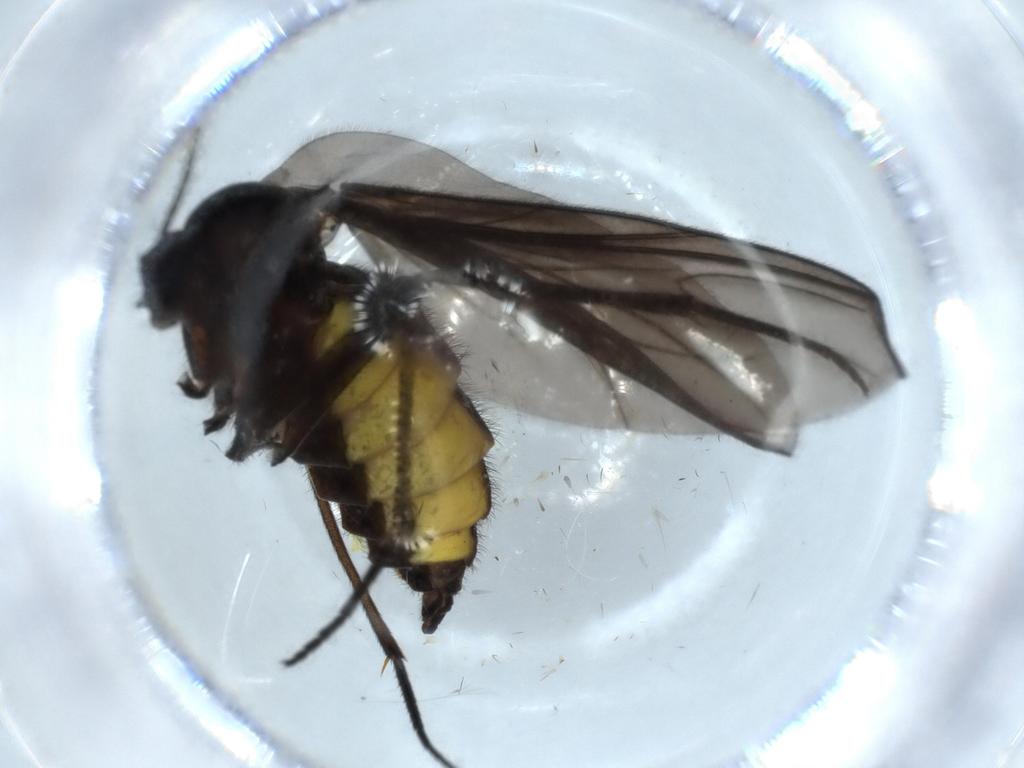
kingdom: Animalia
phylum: Arthropoda
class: Insecta
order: Diptera
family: Sciaridae
